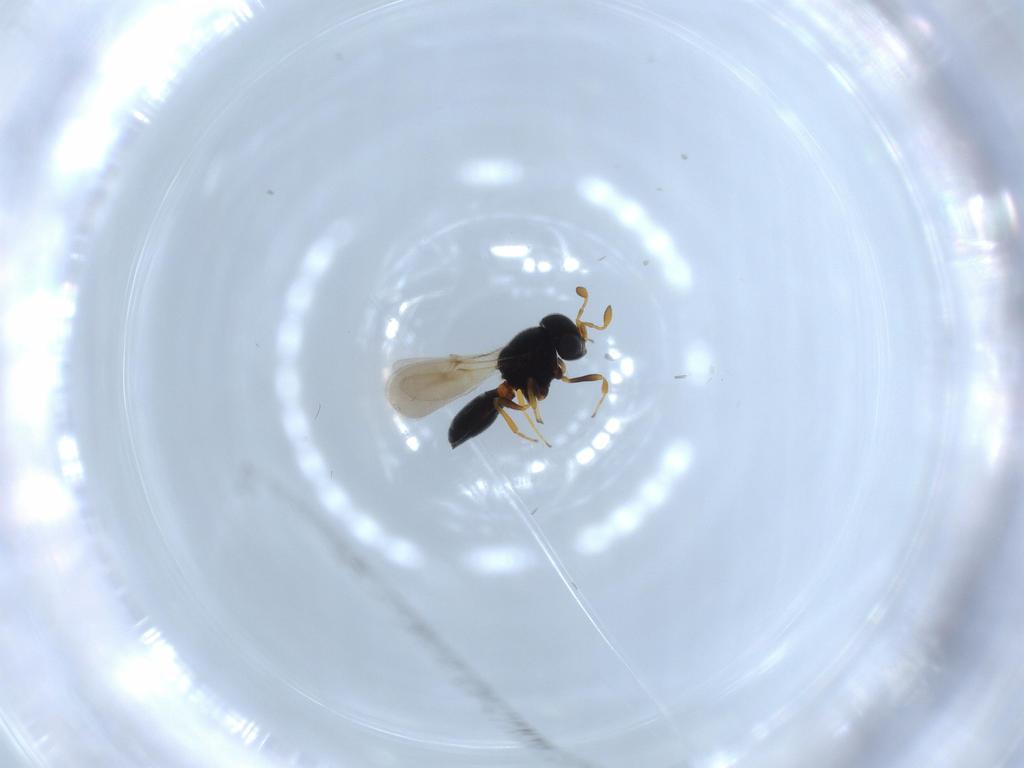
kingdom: Animalia
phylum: Arthropoda
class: Insecta
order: Hymenoptera
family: Scelionidae
